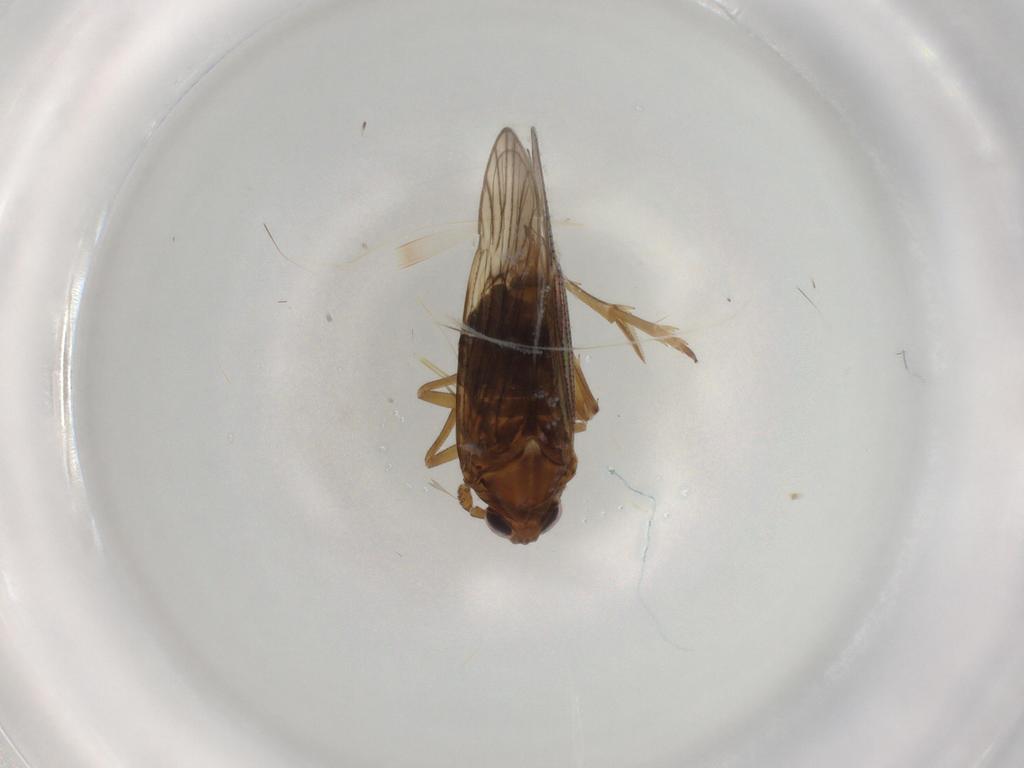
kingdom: Animalia
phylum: Arthropoda
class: Insecta
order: Hemiptera
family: Delphacidae
